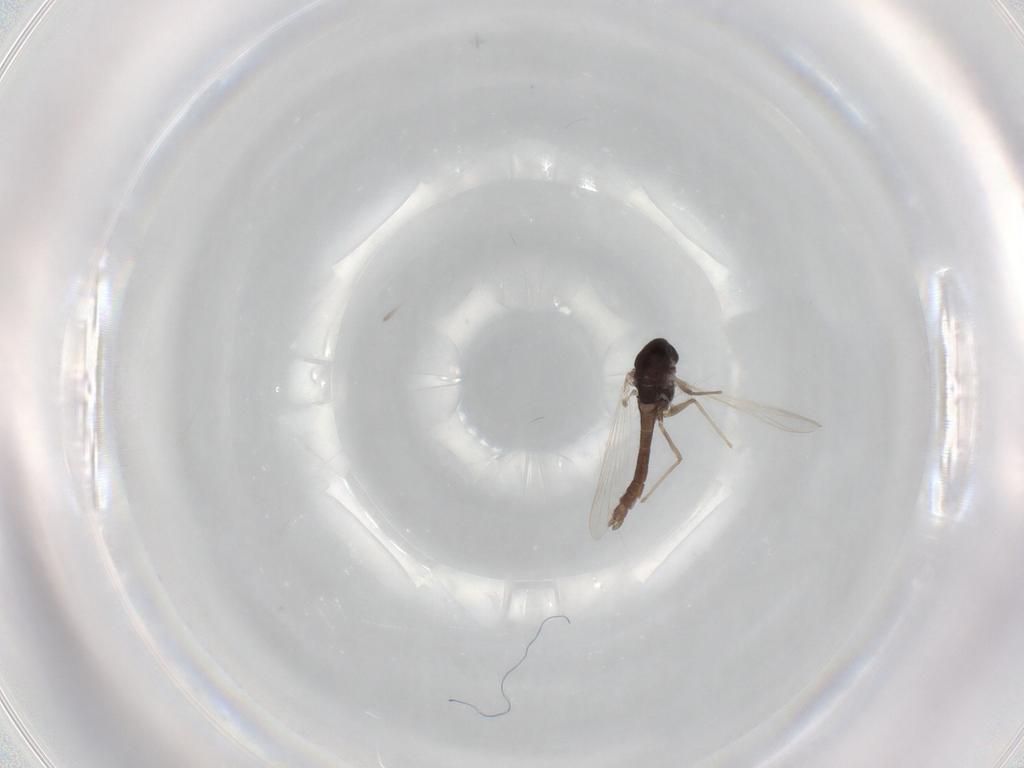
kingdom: Animalia
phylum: Arthropoda
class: Insecta
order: Diptera
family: Chironomidae
